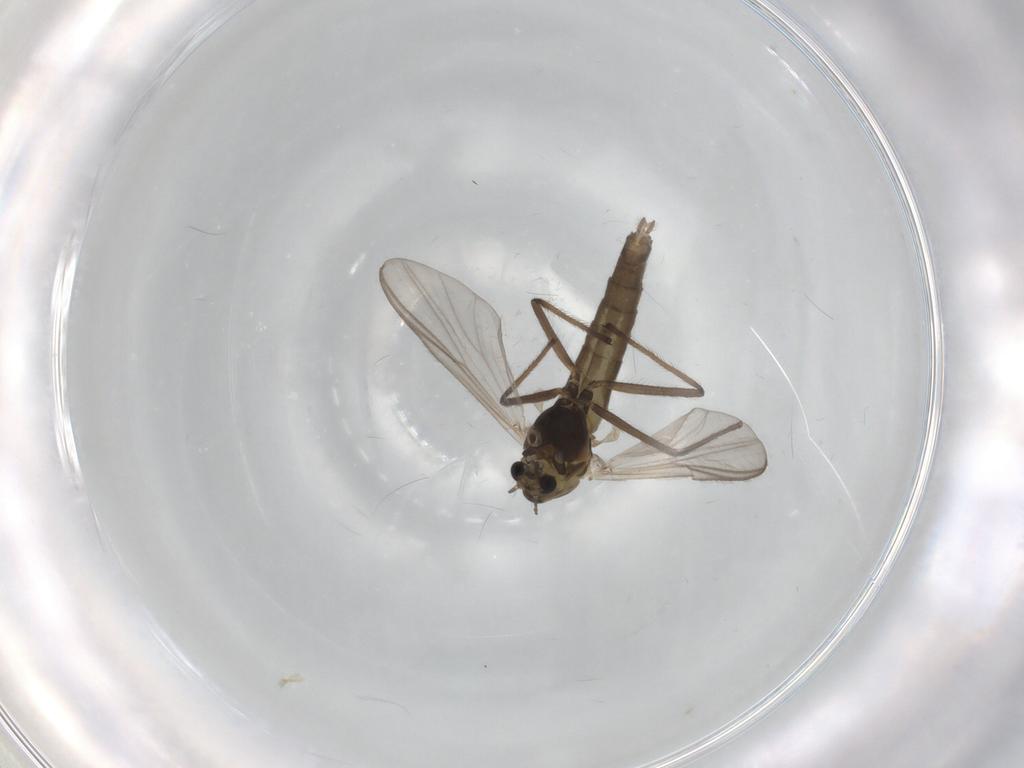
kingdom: Animalia
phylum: Arthropoda
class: Insecta
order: Diptera
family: Chironomidae
